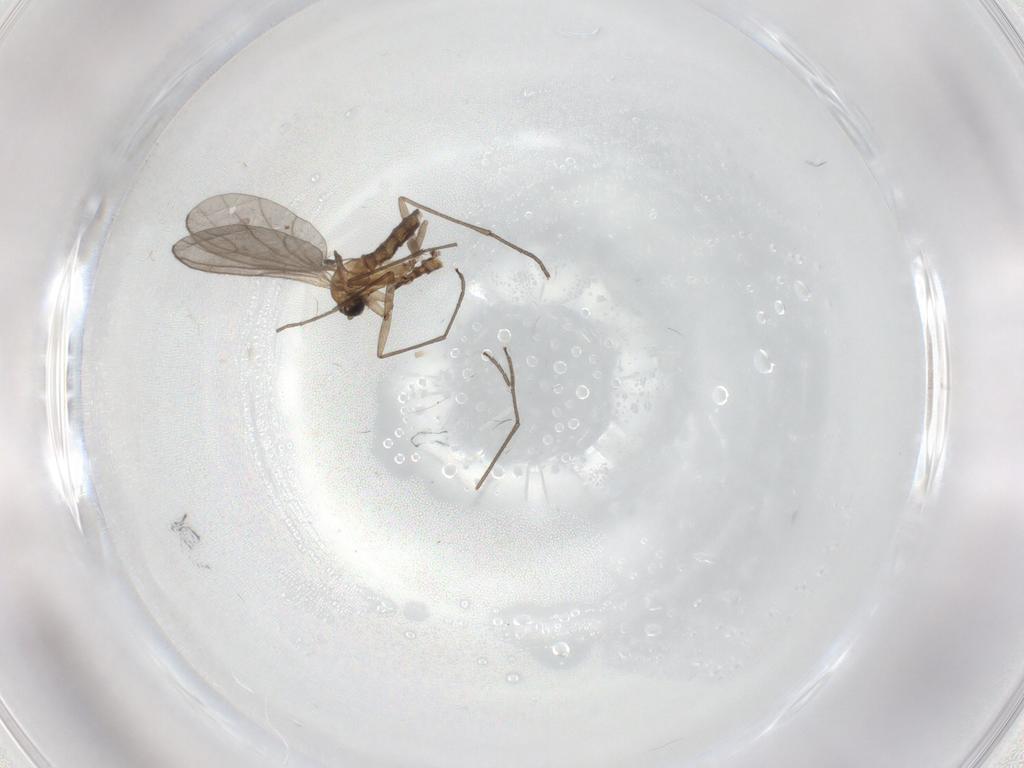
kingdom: Animalia
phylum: Arthropoda
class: Insecta
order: Diptera
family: Sciaridae
